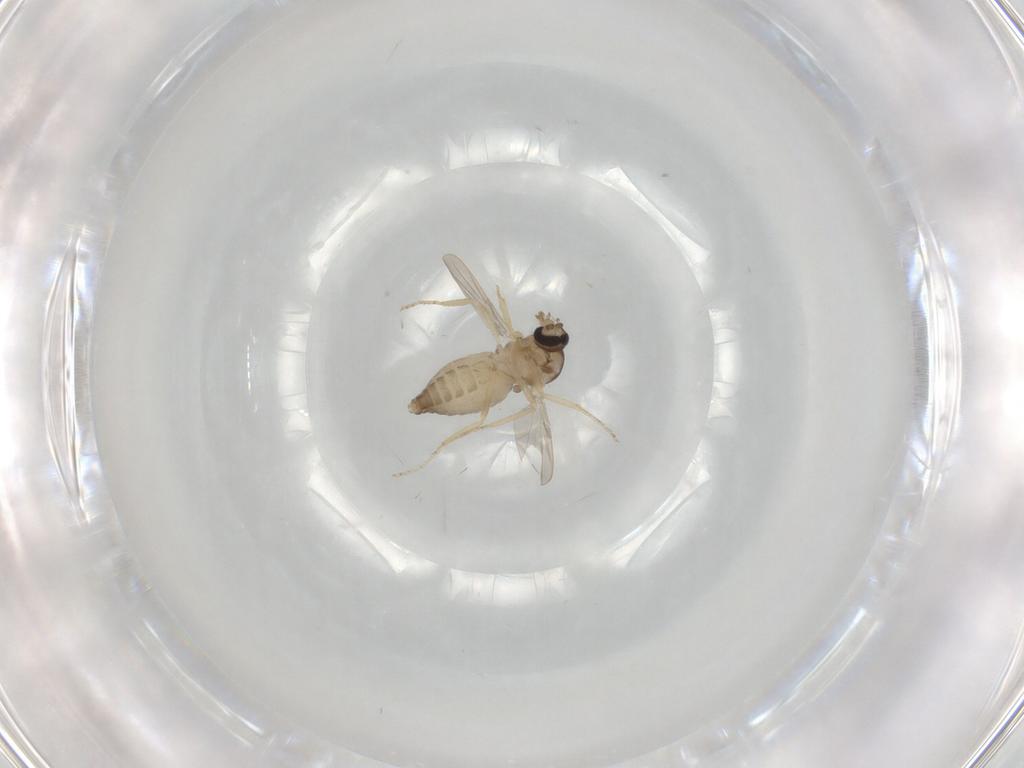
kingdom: Animalia
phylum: Arthropoda
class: Insecta
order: Diptera
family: Ceratopogonidae
